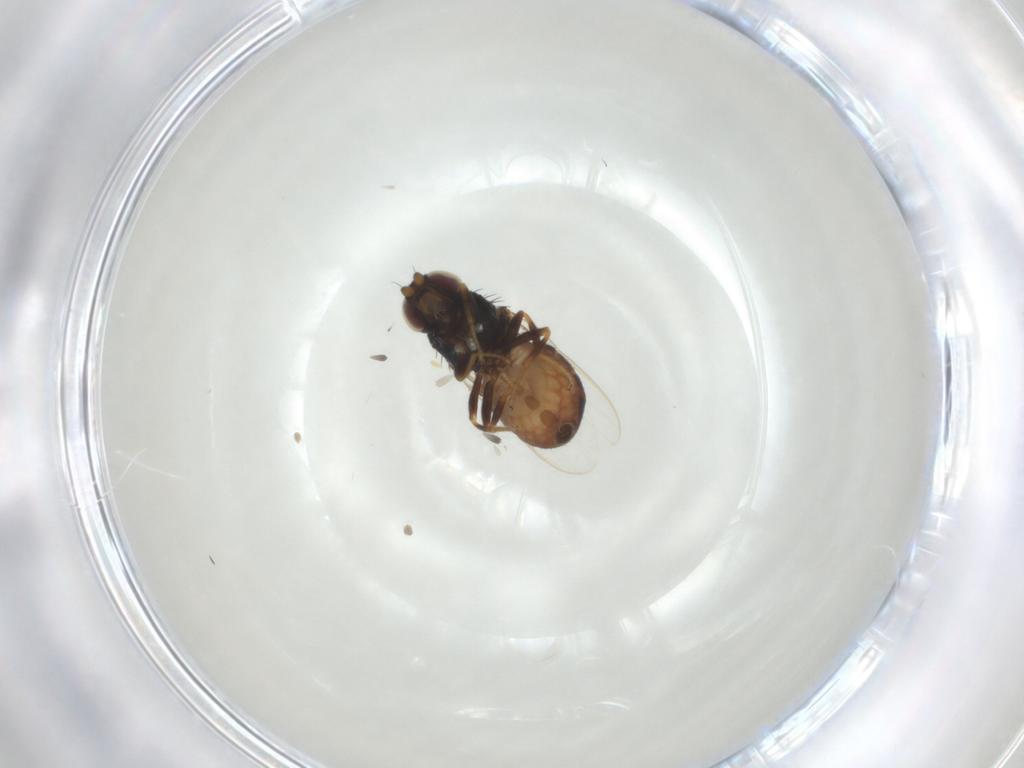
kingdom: Animalia
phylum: Arthropoda
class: Insecta
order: Diptera
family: Chloropidae
